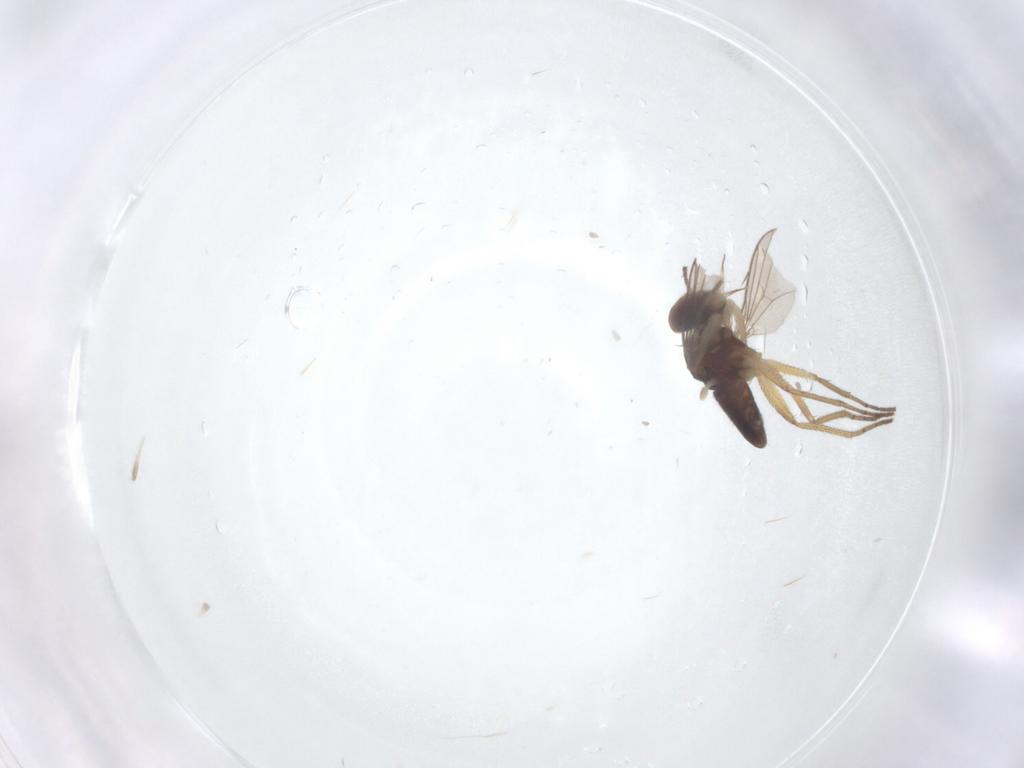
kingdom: Animalia
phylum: Arthropoda
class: Insecta
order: Diptera
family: Dolichopodidae
